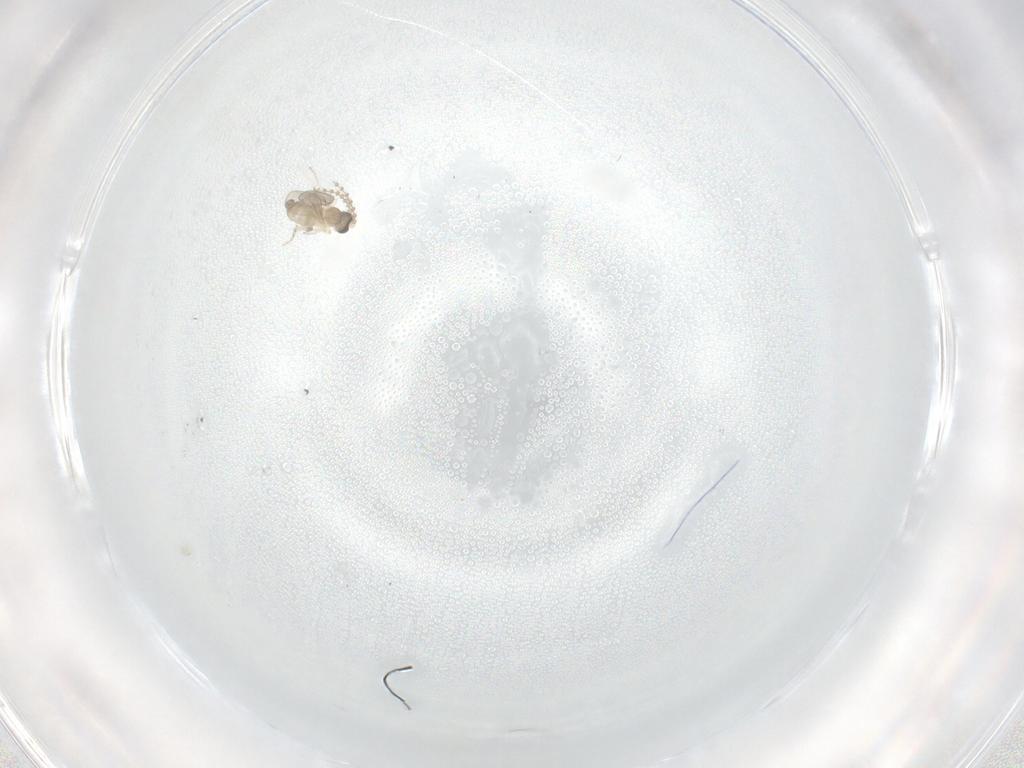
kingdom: Animalia
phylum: Arthropoda
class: Insecta
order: Diptera
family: Cecidomyiidae
